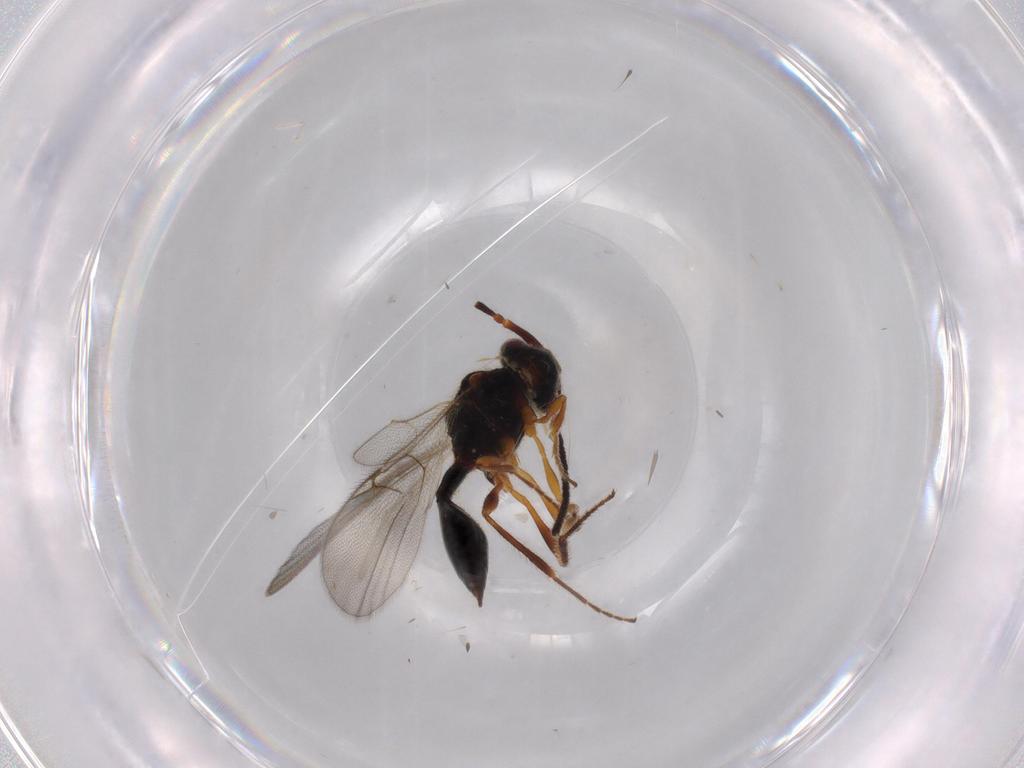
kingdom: Animalia
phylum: Arthropoda
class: Insecta
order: Hymenoptera
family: Diapriidae
